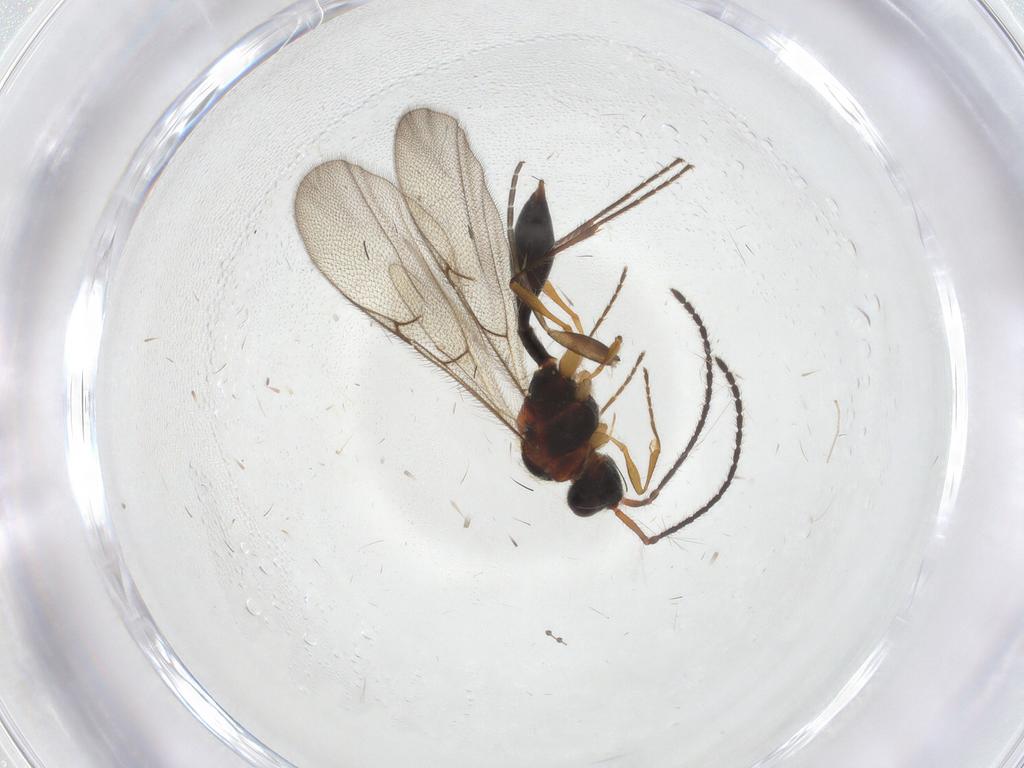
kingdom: Animalia
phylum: Arthropoda
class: Insecta
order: Hymenoptera
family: Diapriidae
